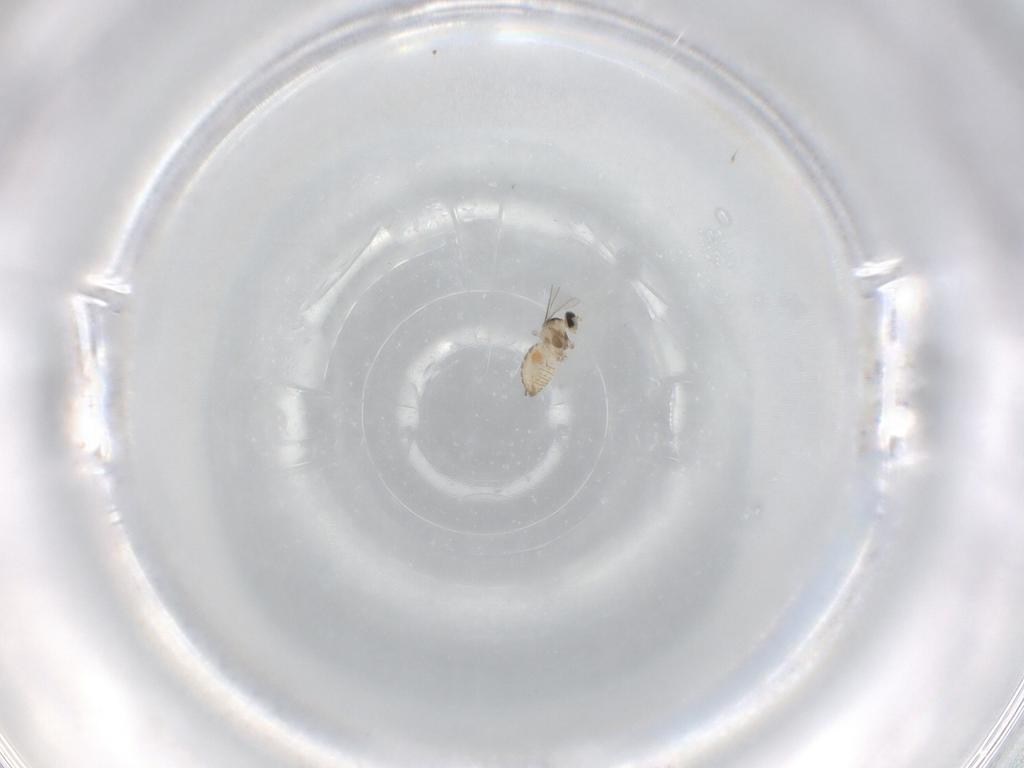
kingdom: Animalia
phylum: Arthropoda
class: Insecta
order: Diptera
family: Cecidomyiidae
